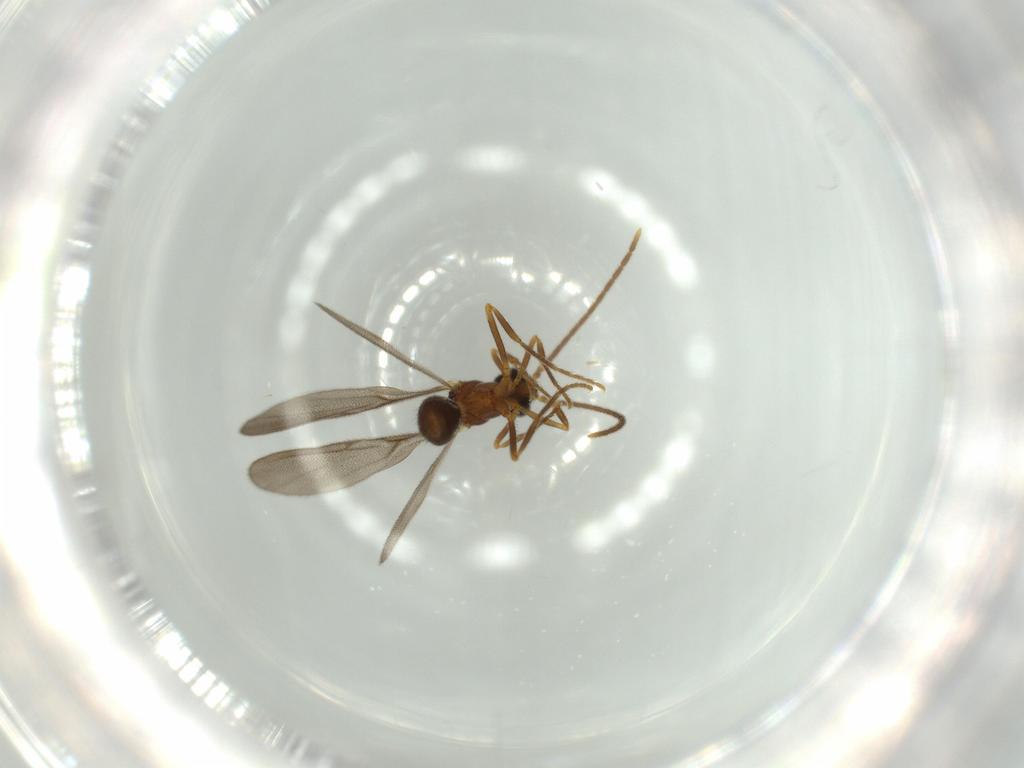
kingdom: Animalia
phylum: Arthropoda
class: Insecta
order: Hymenoptera
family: Formicidae
